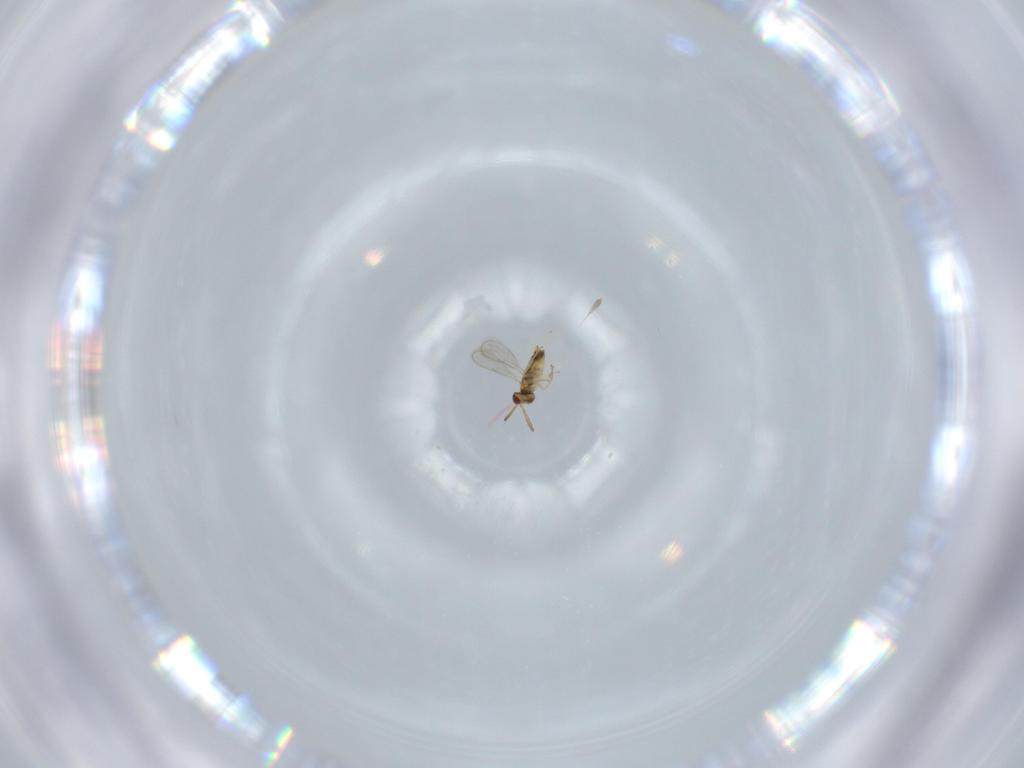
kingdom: Animalia
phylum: Arthropoda
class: Insecta
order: Hymenoptera
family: Aphelinidae
